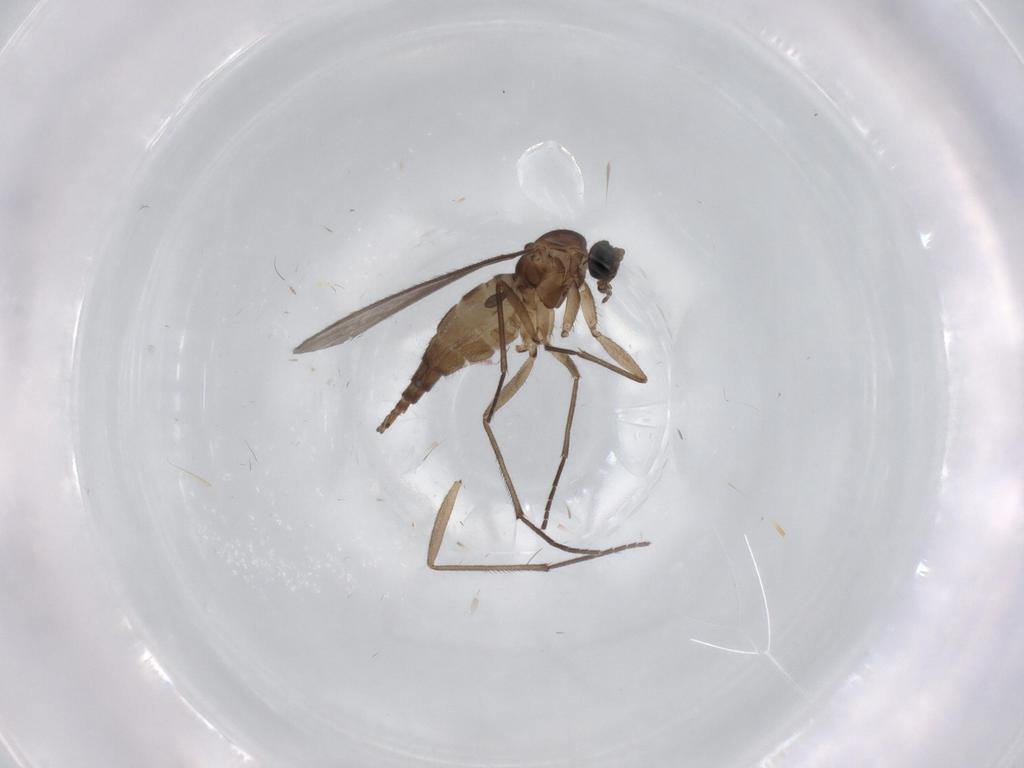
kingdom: Animalia
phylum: Arthropoda
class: Insecta
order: Diptera
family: Sciaridae
